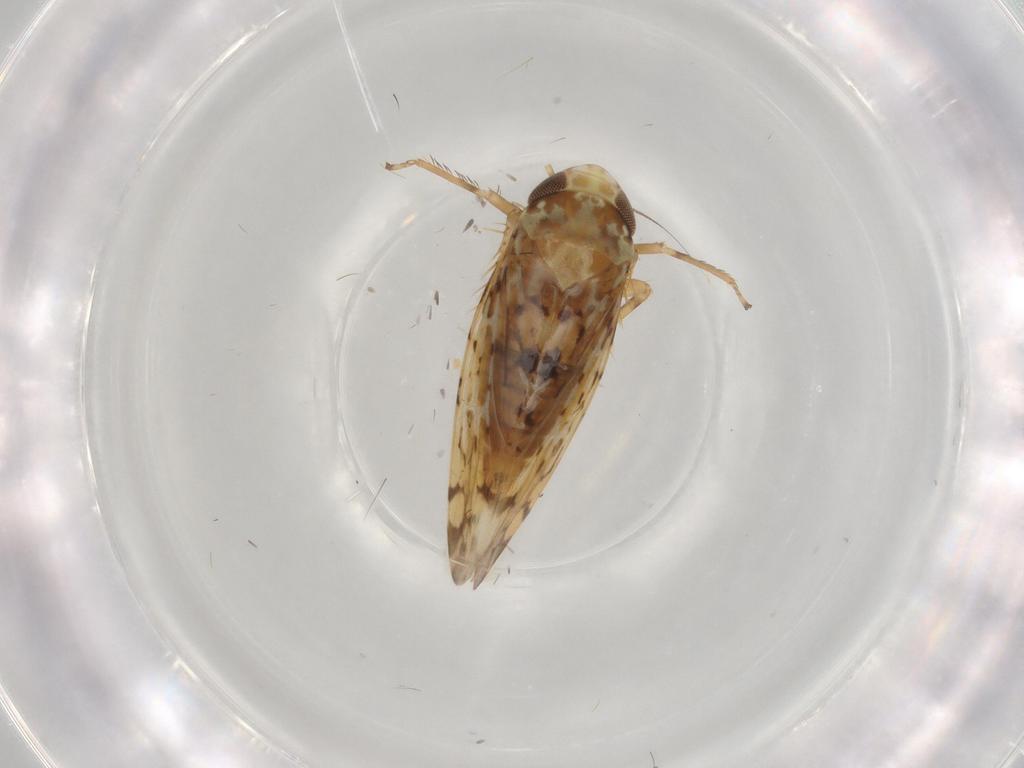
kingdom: Animalia
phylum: Arthropoda
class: Insecta
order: Hemiptera
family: Cicadellidae
